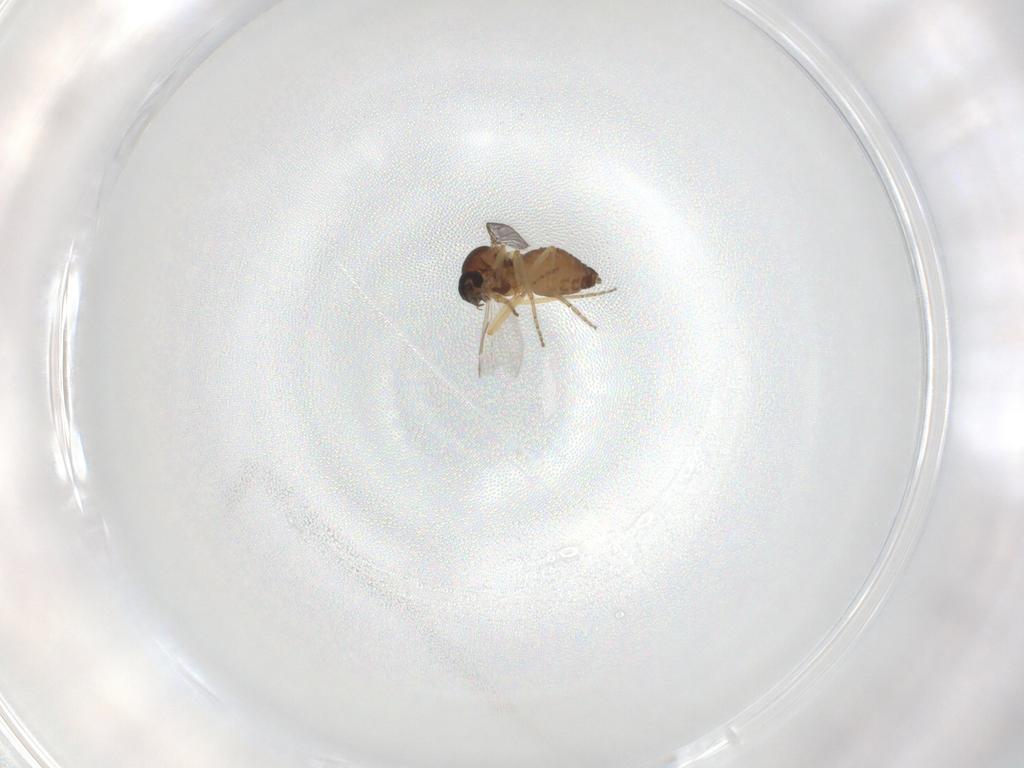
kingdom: Animalia
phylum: Arthropoda
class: Insecta
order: Diptera
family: Ceratopogonidae
